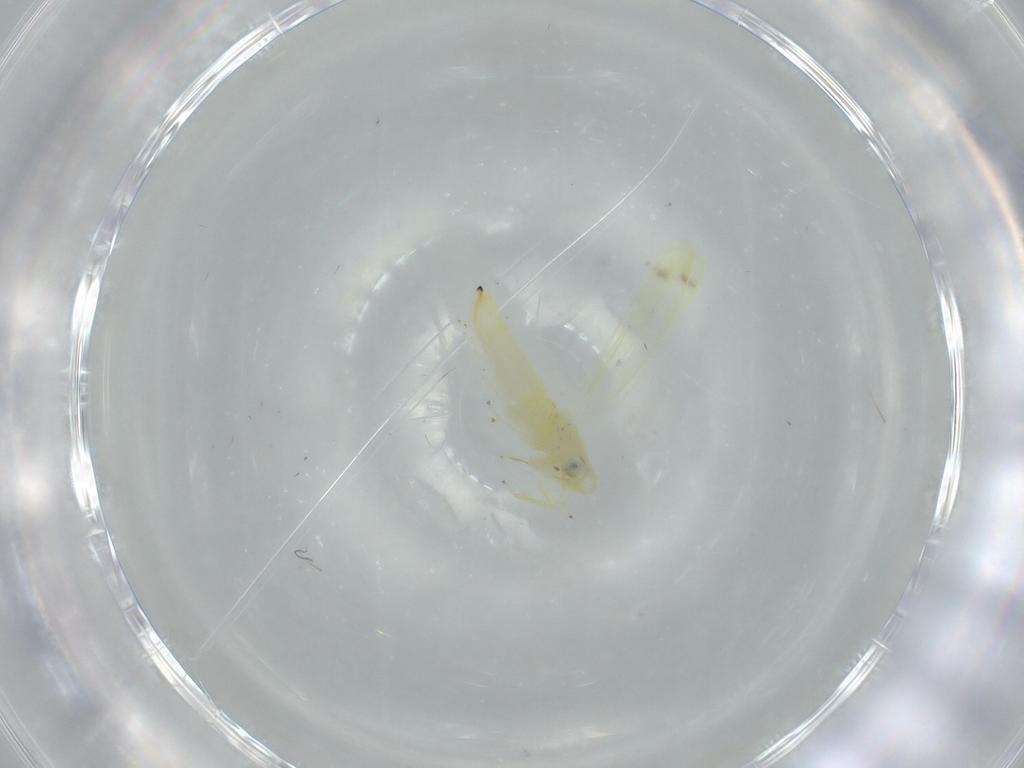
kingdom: Animalia
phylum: Arthropoda
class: Insecta
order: Hemiptera
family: Cicadellidae
